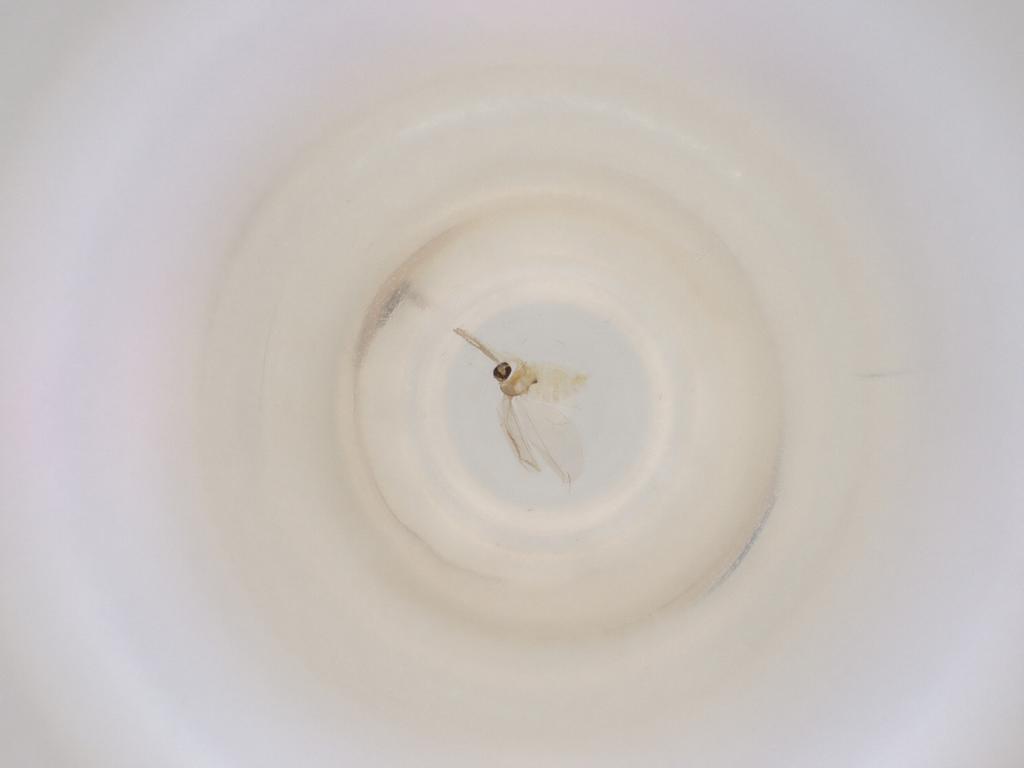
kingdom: Animalia
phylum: Arthropoda
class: Insecta
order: Diptera
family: Cecidomyiidae
